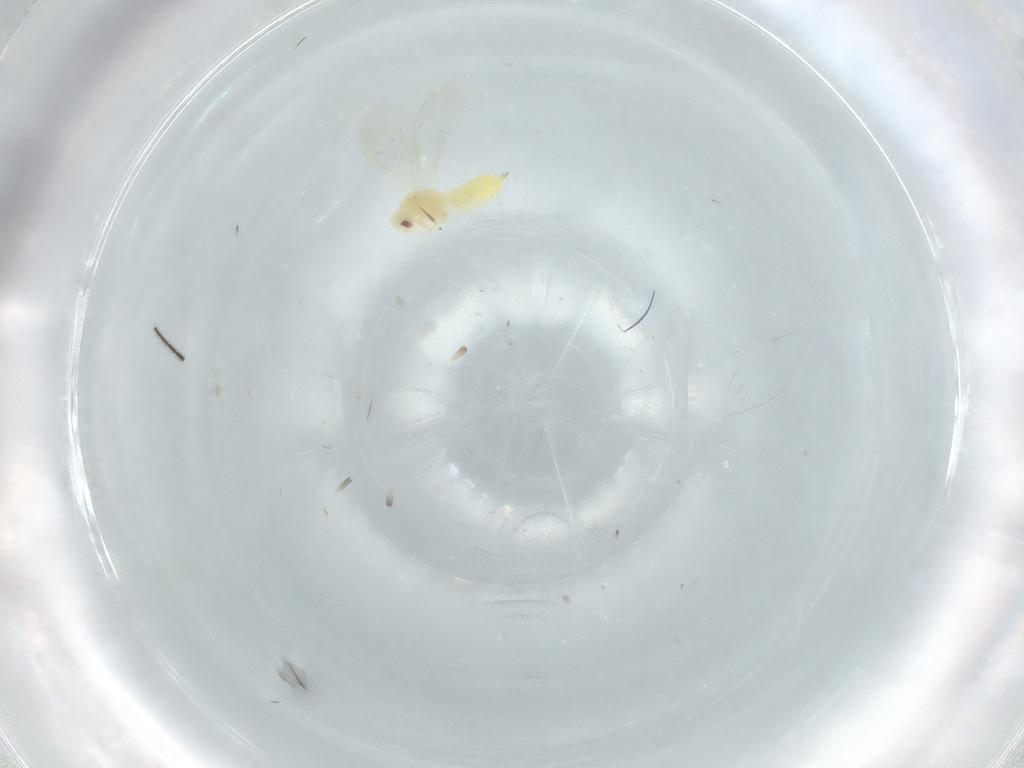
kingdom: Animalia
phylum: Arthropoda
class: Insecta
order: Hemiptera
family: Aleyrodidae
